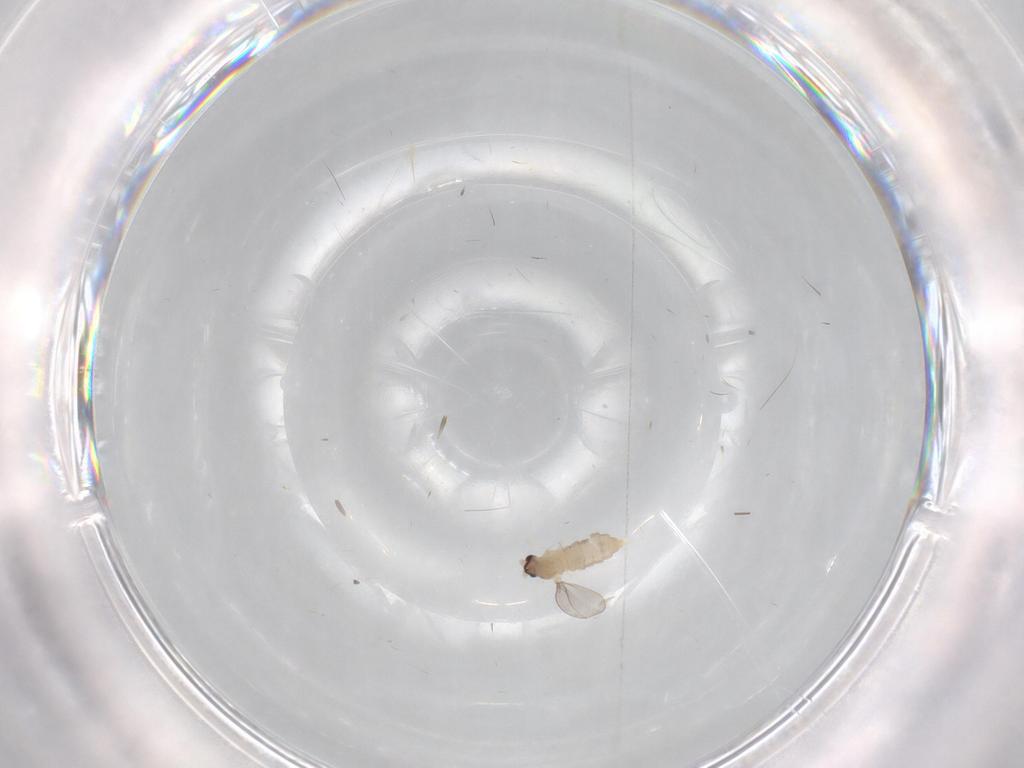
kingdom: Animalia
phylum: Arthropoda
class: Insecta
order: Diptera
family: Cecidomyiidae
